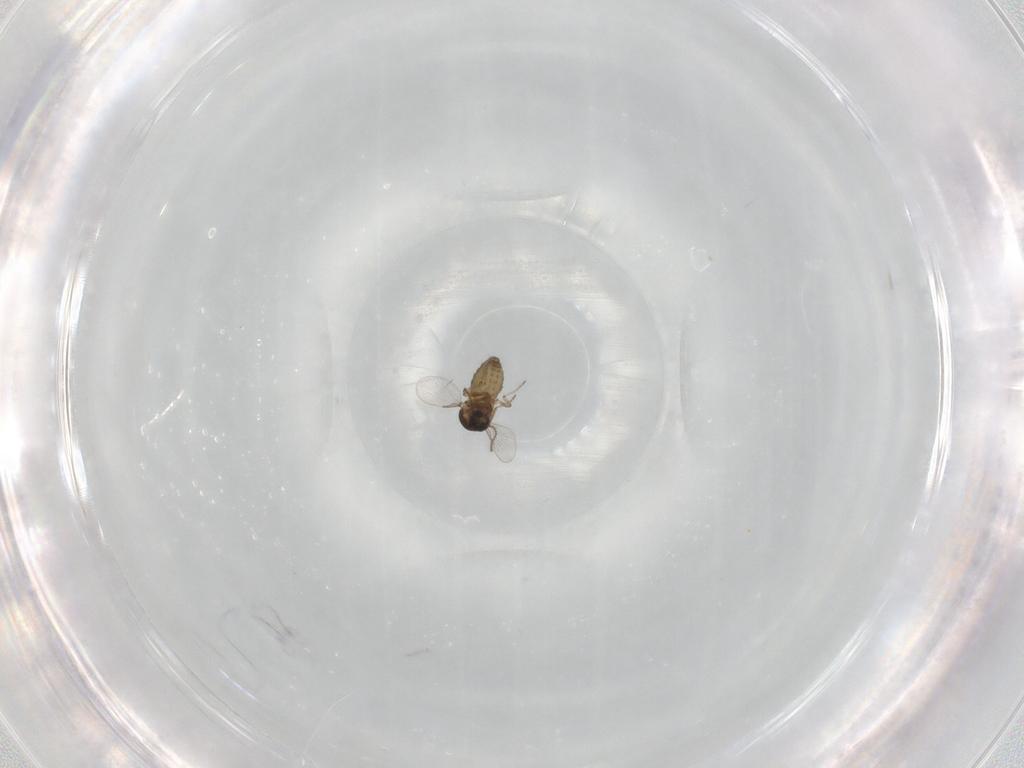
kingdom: Animalia
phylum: Arthropoda
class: Insecta
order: Diptera
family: Ceratopogonidae
